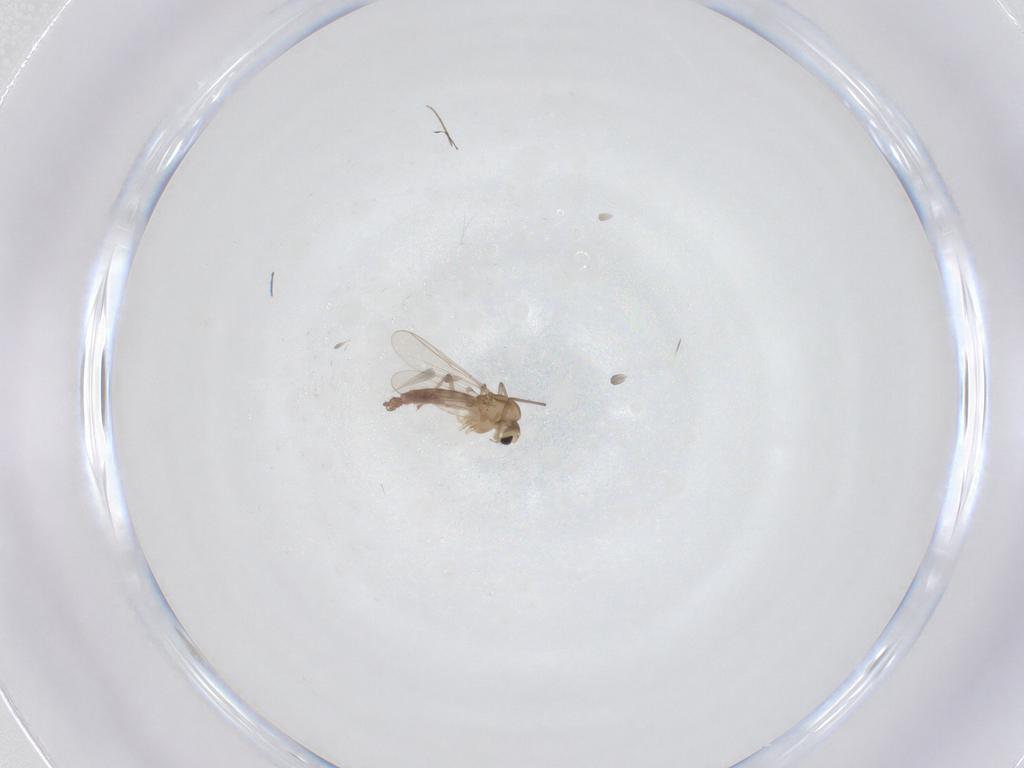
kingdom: Animalia
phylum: Arthropoda
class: Insecta
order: Diptera
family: Chironomidae
